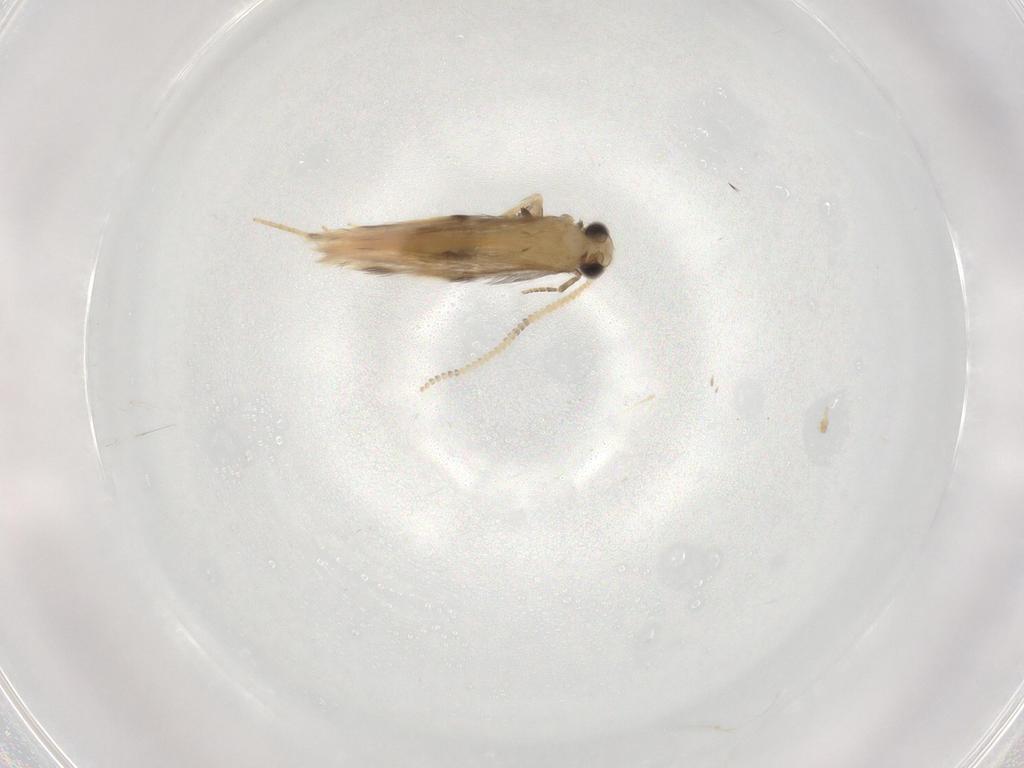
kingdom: Animalia
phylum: Arthropoda
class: Insecta
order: Trichoptera
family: Hydroptilidae
